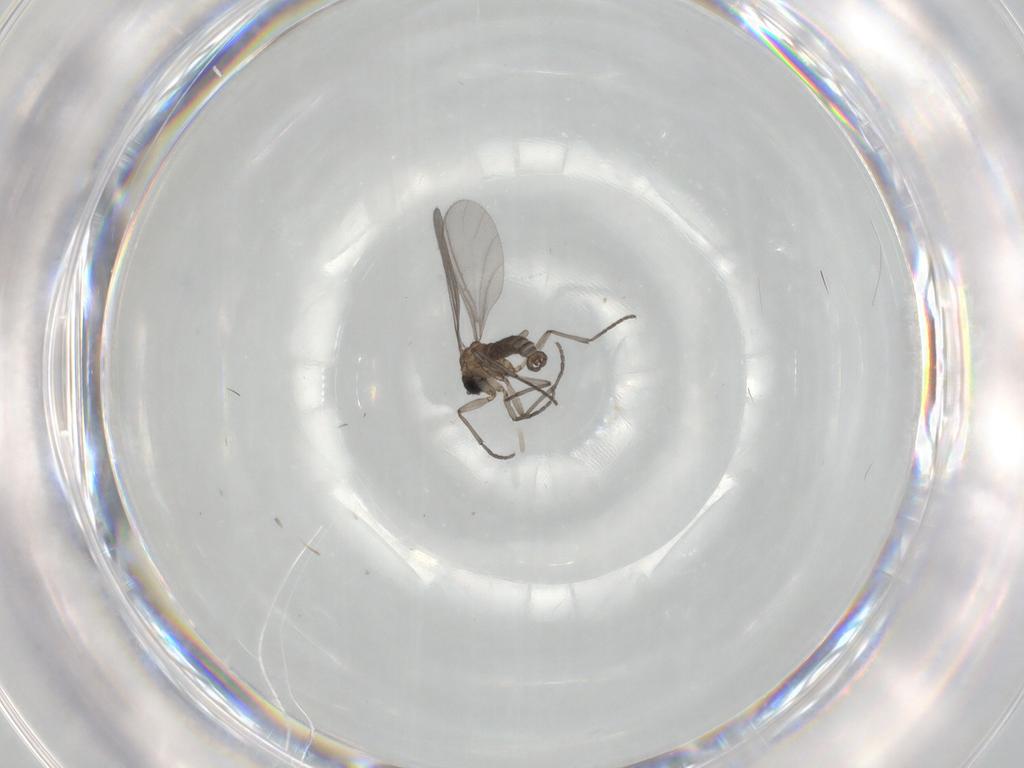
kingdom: Animalia
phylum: Arthropoda
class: Insecta
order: Diptera
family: Sciaridae
